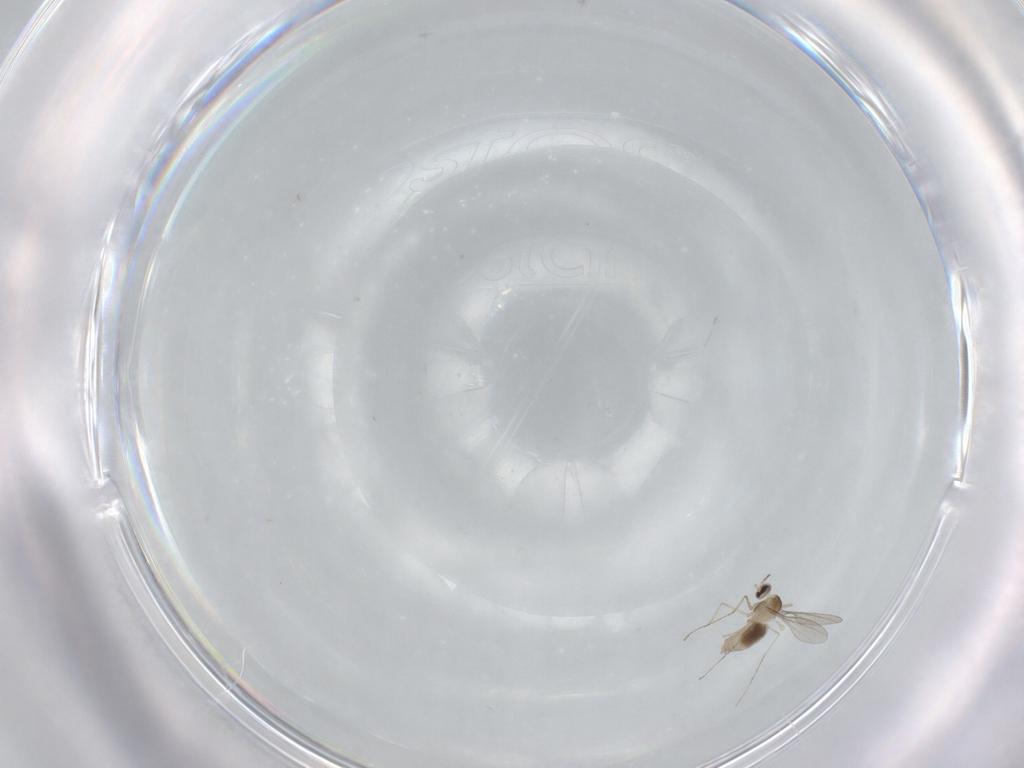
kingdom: Animalia
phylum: Arthropoda
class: Insecta
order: Diptera
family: Cecidomyiidae
